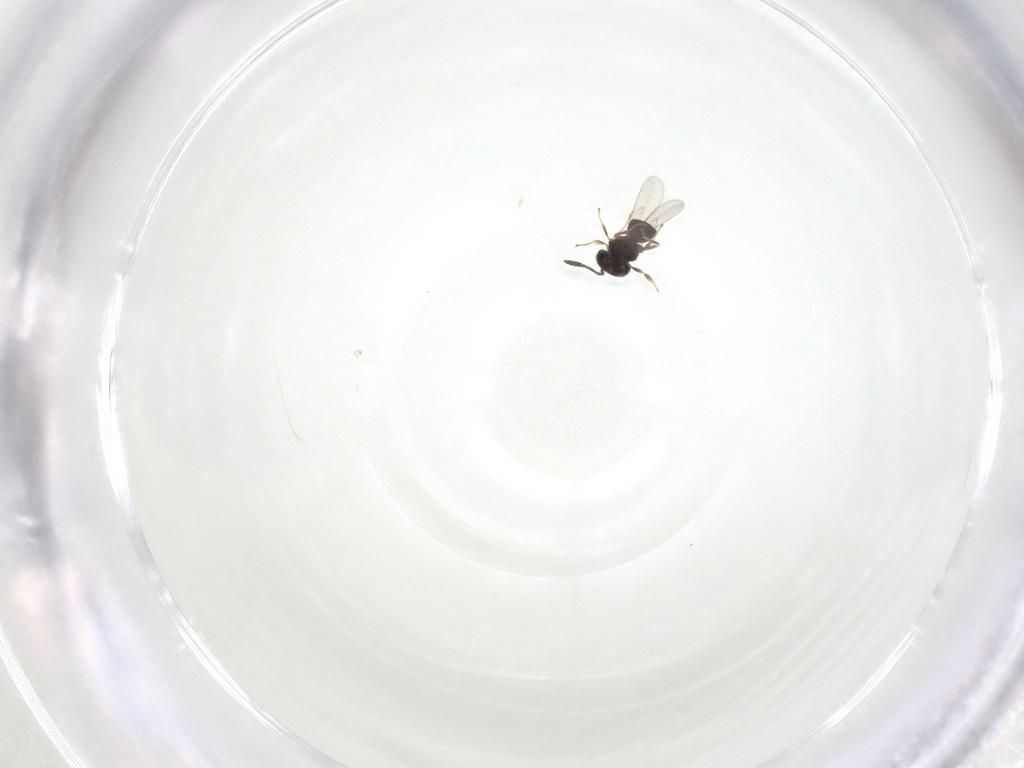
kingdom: Animalia
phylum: Arthropoda
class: Insecta
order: Hymenoptera
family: Scelionidae
